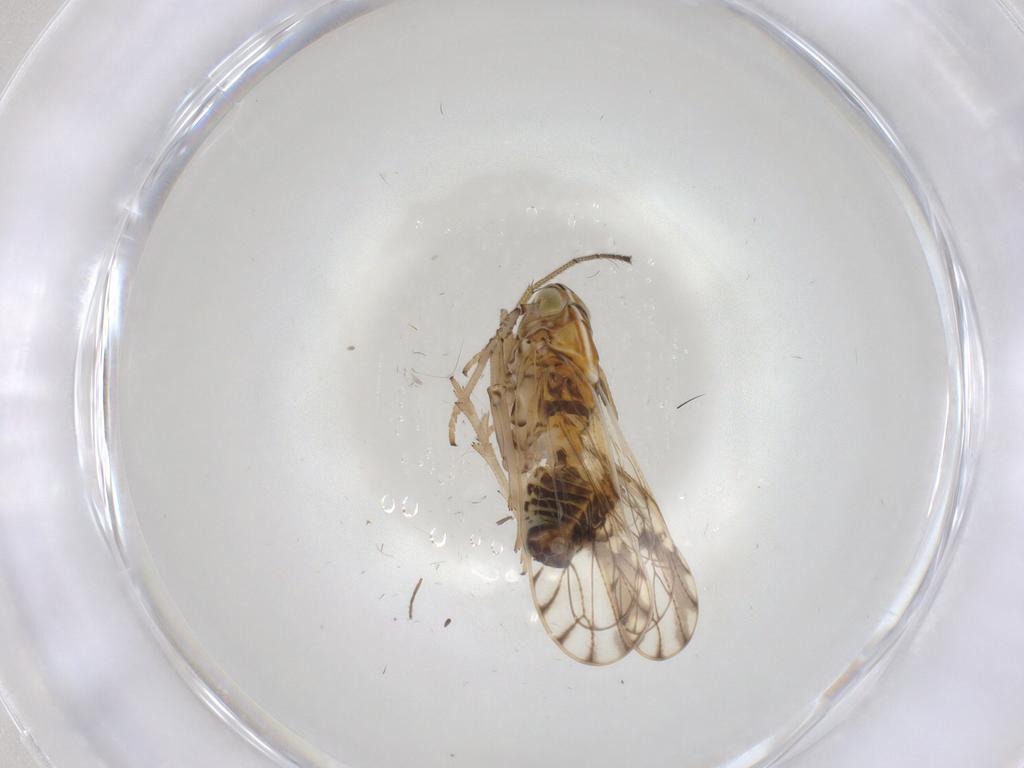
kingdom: Animalia
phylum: Arthropoda
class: Insecta
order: Hemiptera
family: Delphacidae
